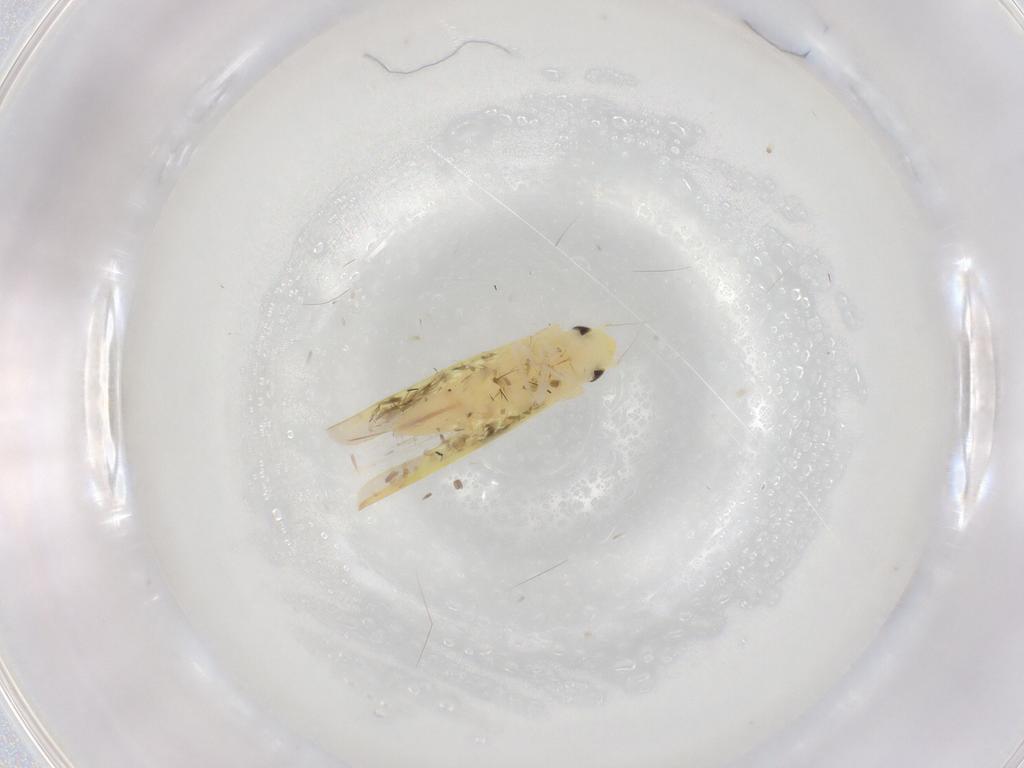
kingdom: Animalia
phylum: Arthropoda
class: Insecta
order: Hemiptera
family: Cicadellidae
